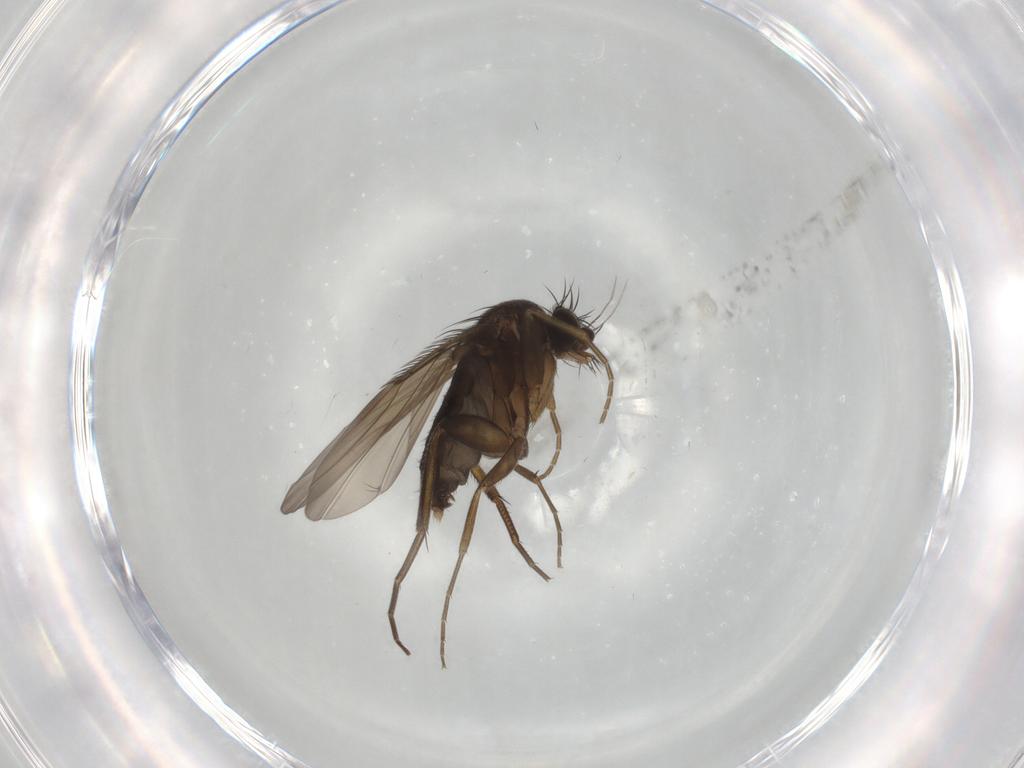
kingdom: Animalia
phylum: Arthropoda
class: Insecta
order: Diptera
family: Phoridae
